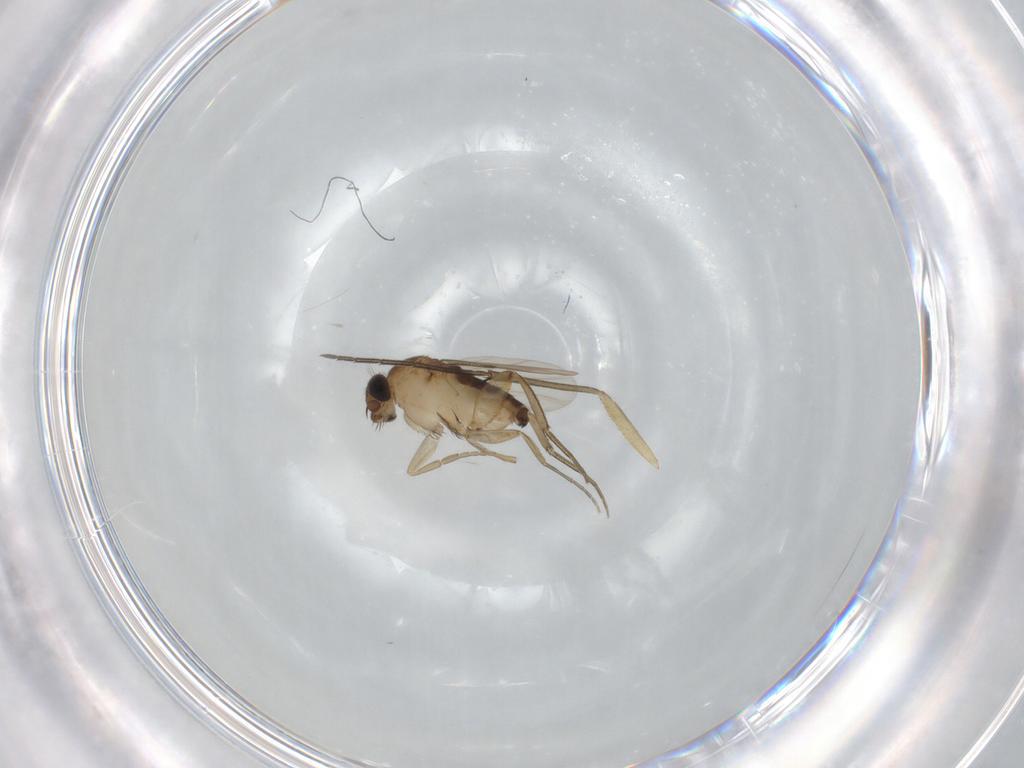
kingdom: Animalia
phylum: Arthropoda
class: Insecta
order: Diptera
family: Phoridae
